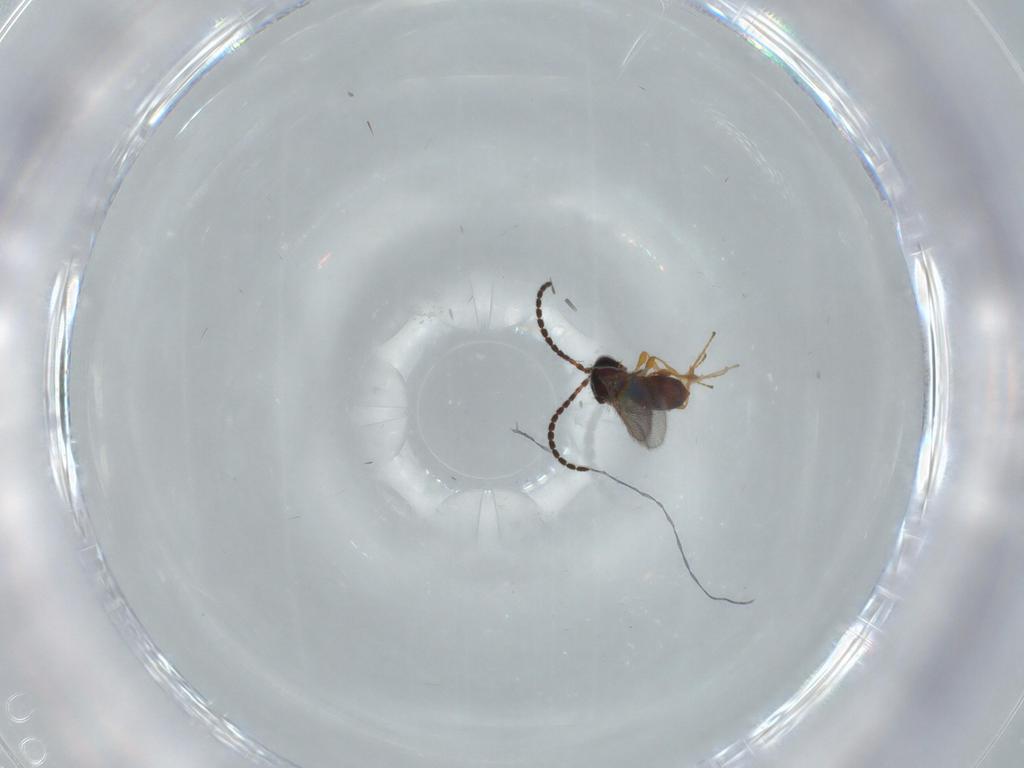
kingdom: Animalia
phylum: Arthropoda
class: Insecta
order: Hymenoptera
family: Diapriidae
